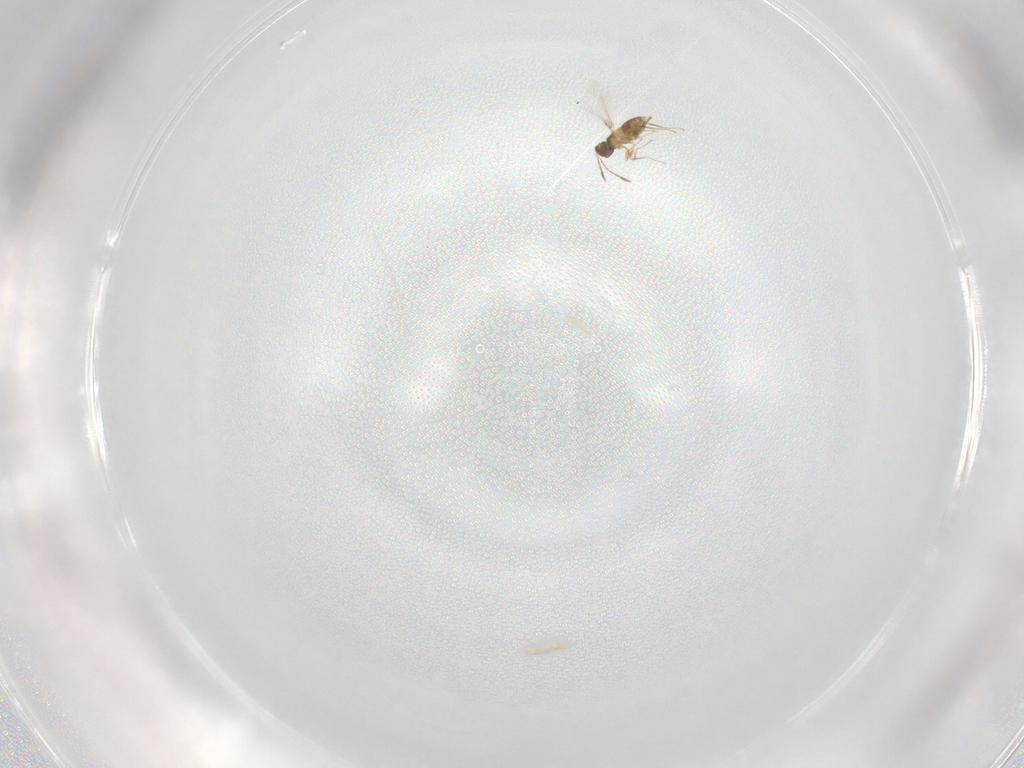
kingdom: Animalia
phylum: Arthropoda
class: Insecta
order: Hymenoptera
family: Mymaridae
